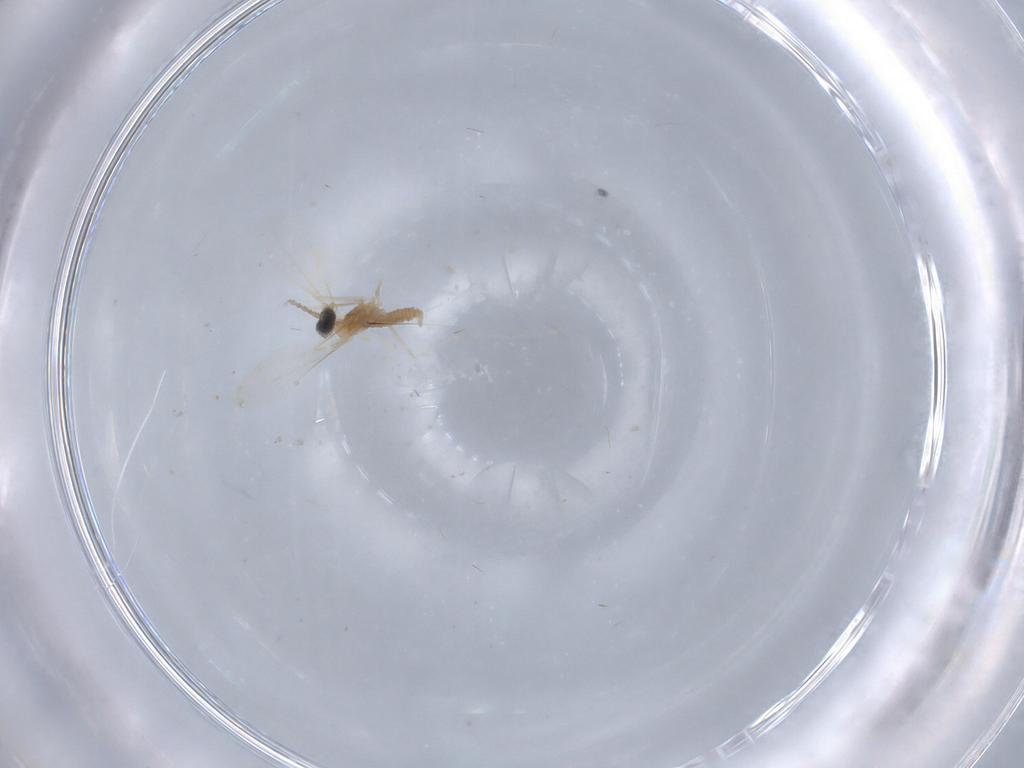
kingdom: Animalia
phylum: Arthropoda
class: Insecta
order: Diptera
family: Cecidomyiidae
